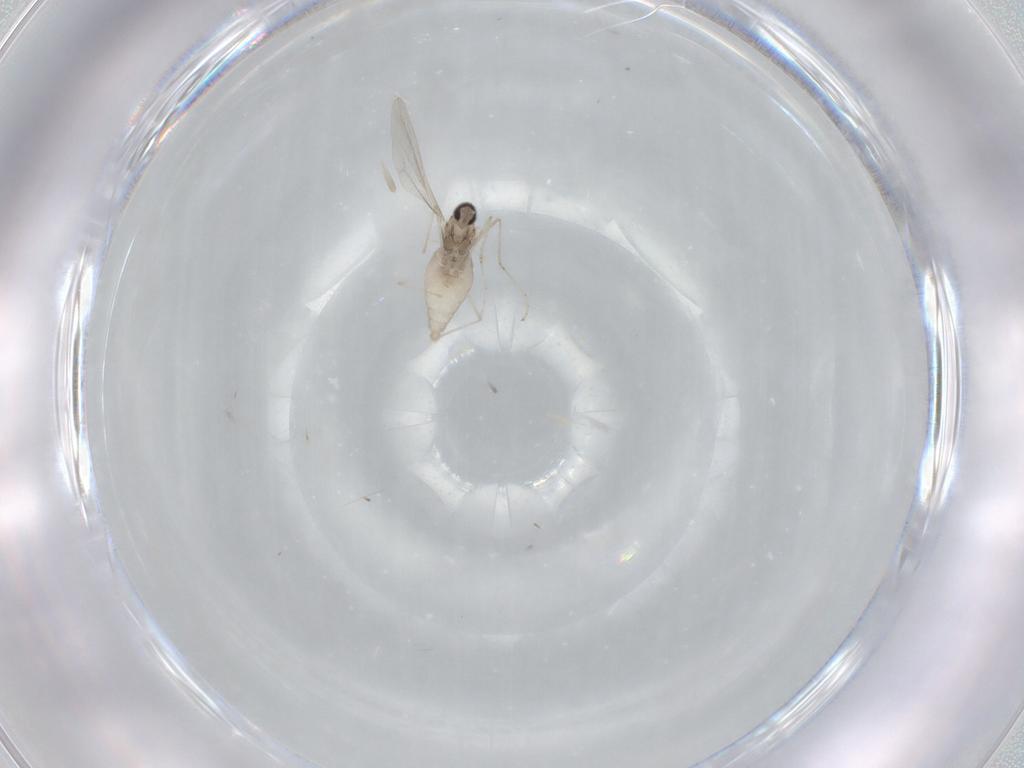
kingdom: Animalia
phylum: Arthropoda
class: Insecta
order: Diptera
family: Cecidomyiidae
